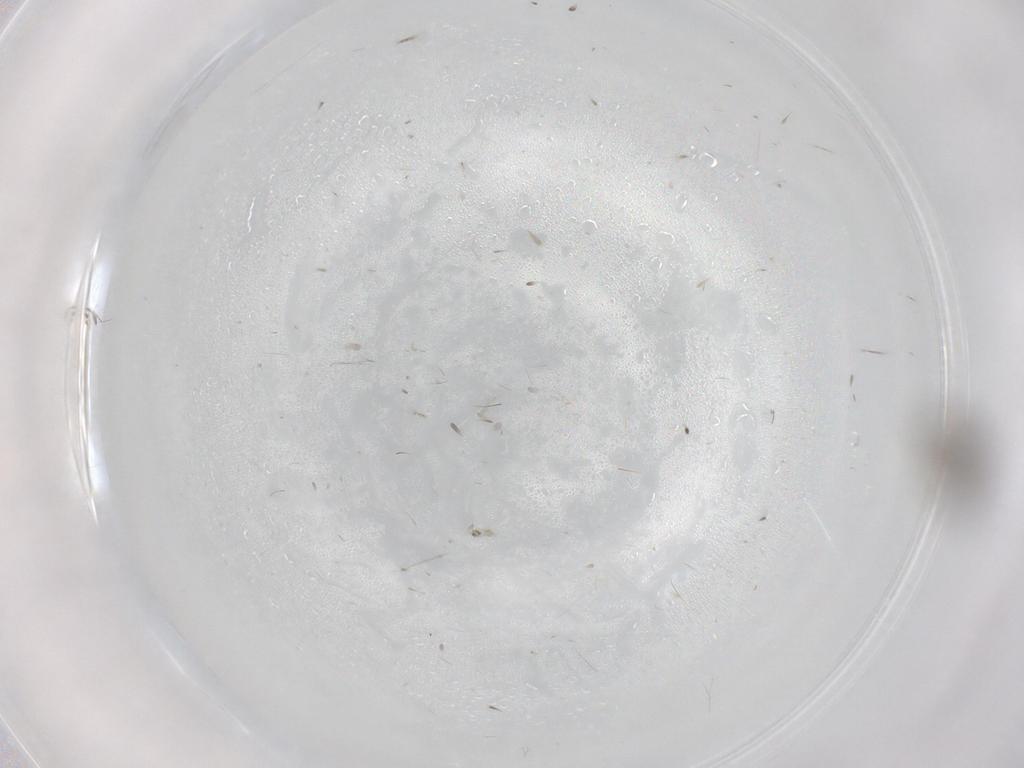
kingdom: Animalia
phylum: Arthropoda
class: Insecta
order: Diptera
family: Cecidomyiidae
